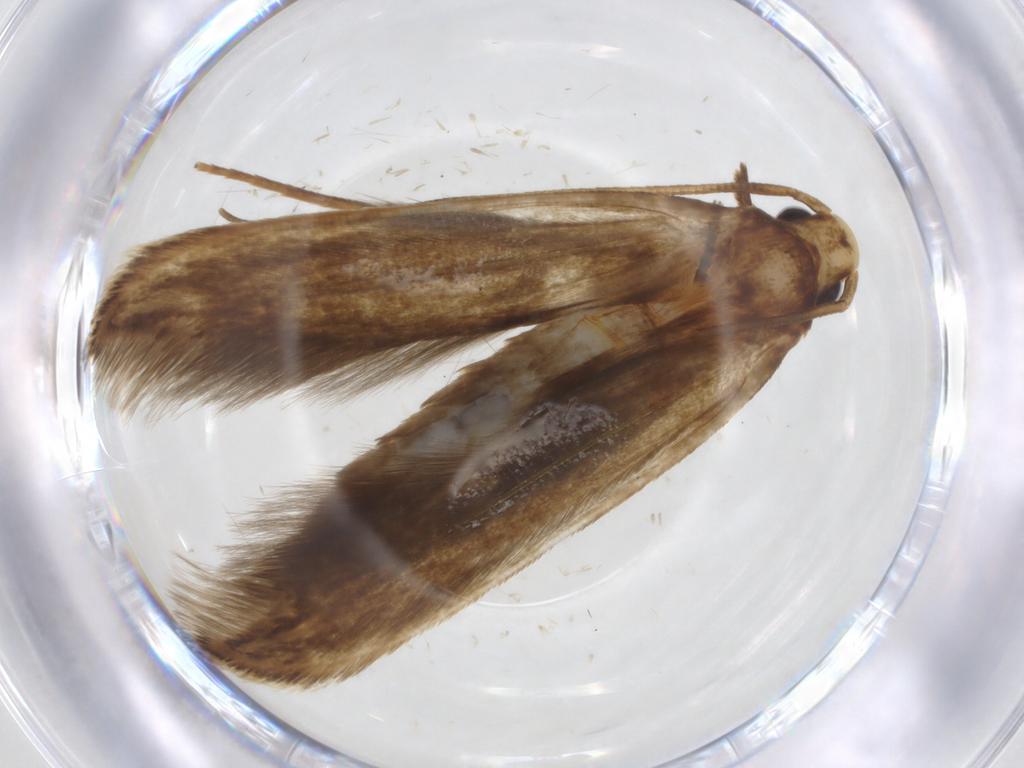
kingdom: Animalia
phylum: Arthropoda
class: Insecta
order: Lepidoptera
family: Tineidae
